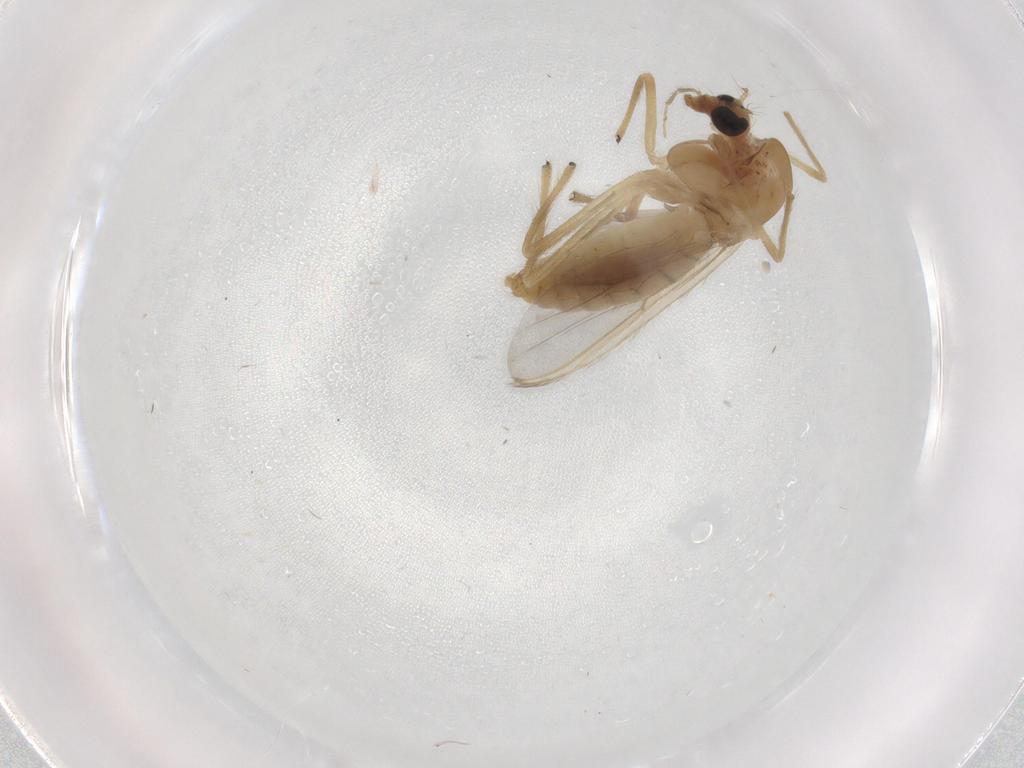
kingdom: Animalia
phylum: Arthropoda
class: Insecta
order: Diptera
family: Chironomidae
